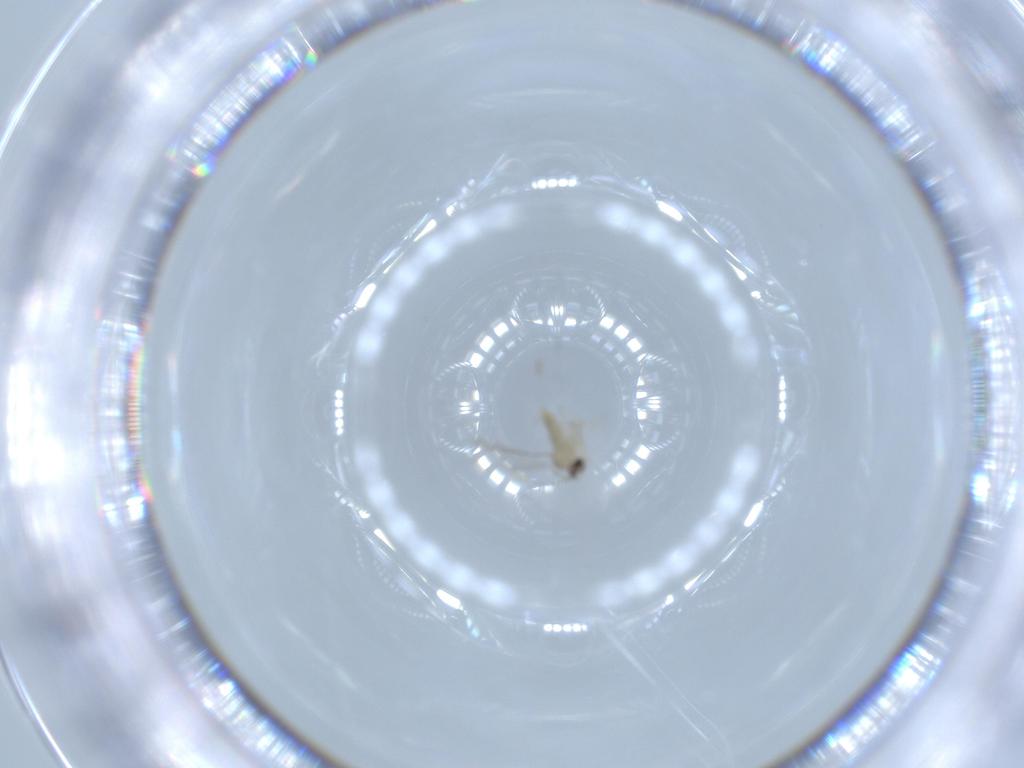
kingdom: Animalia
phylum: Arthropoda
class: Insecta
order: Diptera
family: Cecidomyiidae
